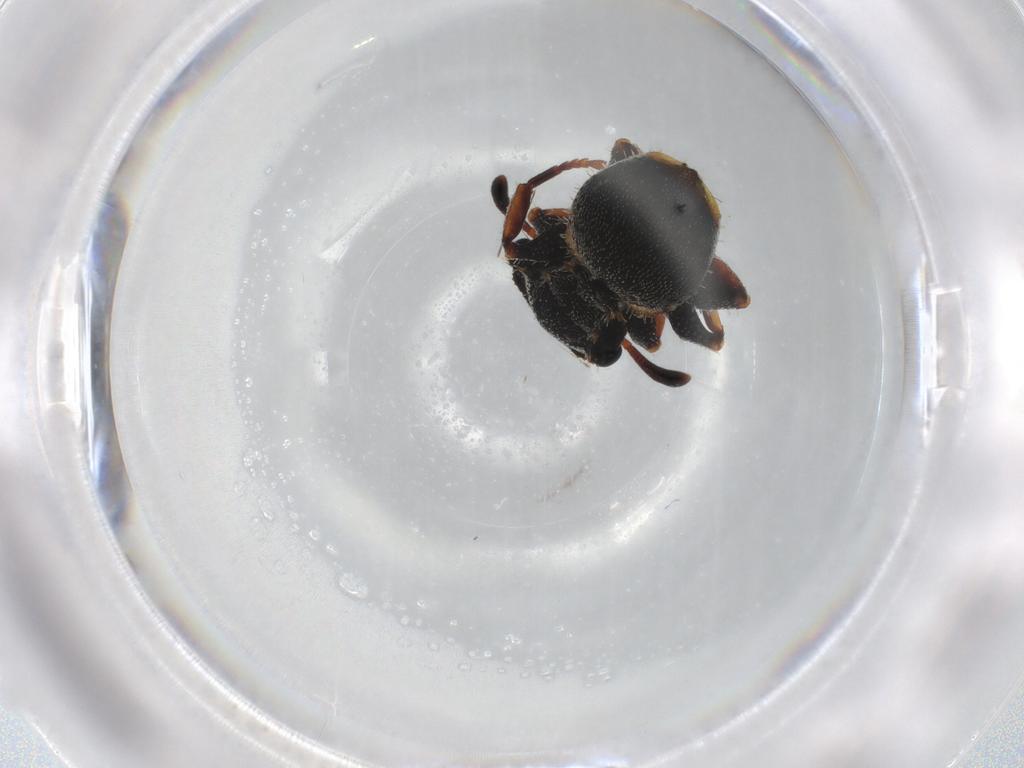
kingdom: Animalia
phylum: Arthropoda
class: Insecta
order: Hymenoptera
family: Formicidae
